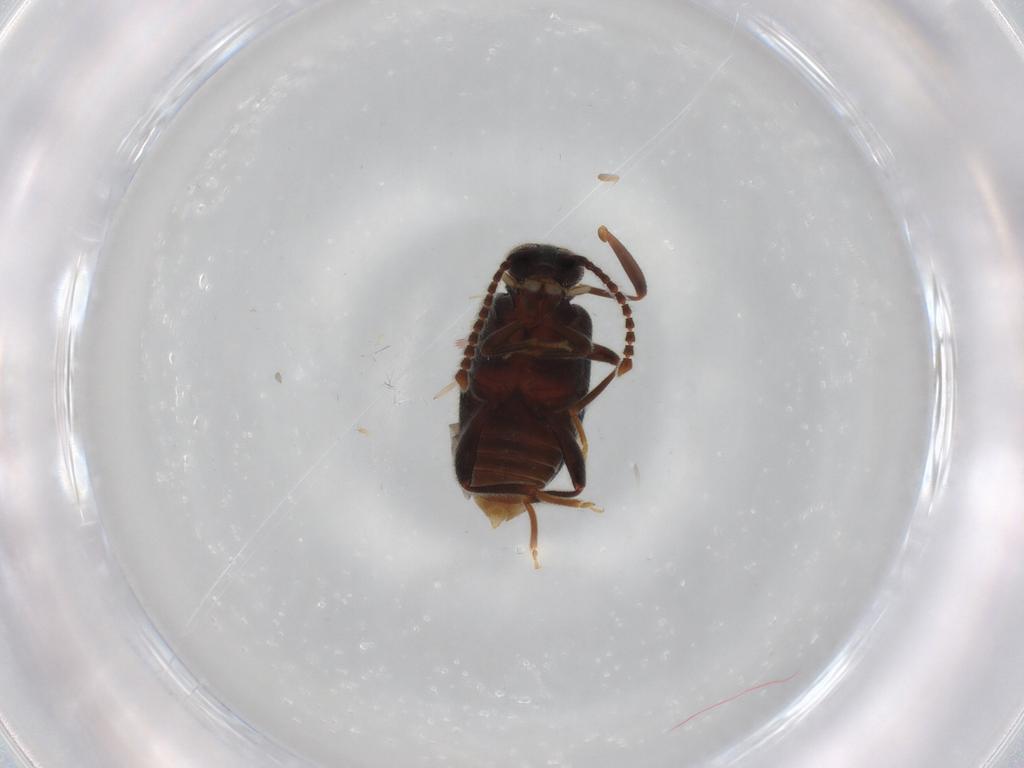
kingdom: Animalia
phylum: Arthropoda
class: Insecta
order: Coleoptera
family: Aderidae
